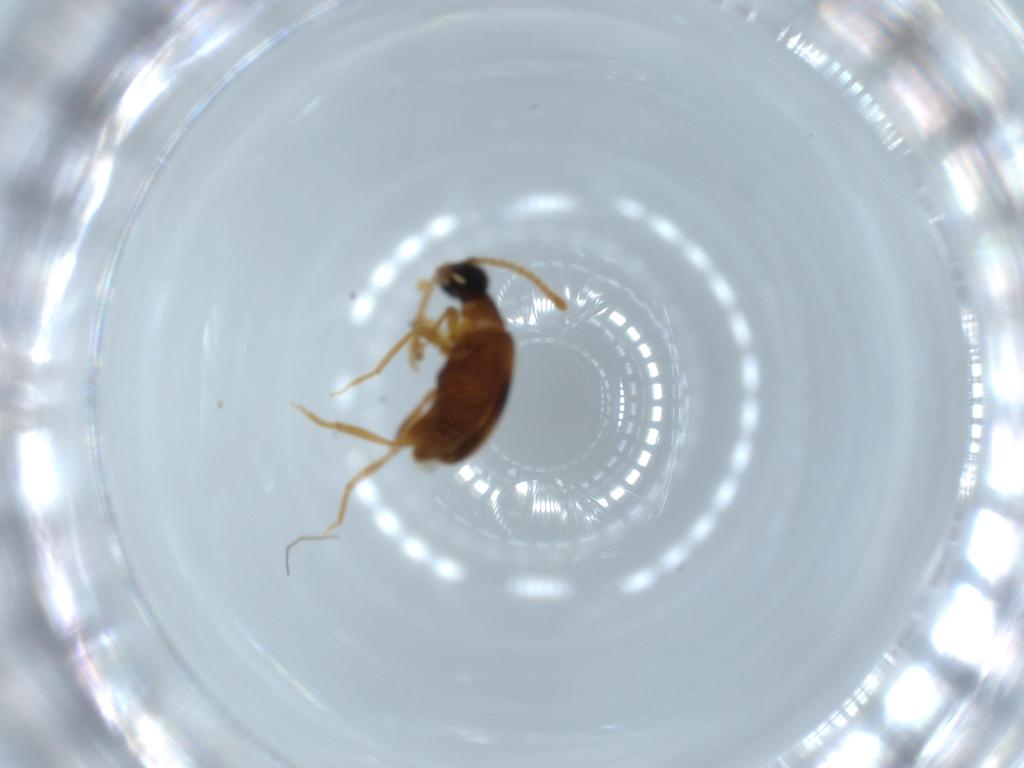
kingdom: Animalia
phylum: Arthropoda
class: Insecta
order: Coleoptera
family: Aderidae
